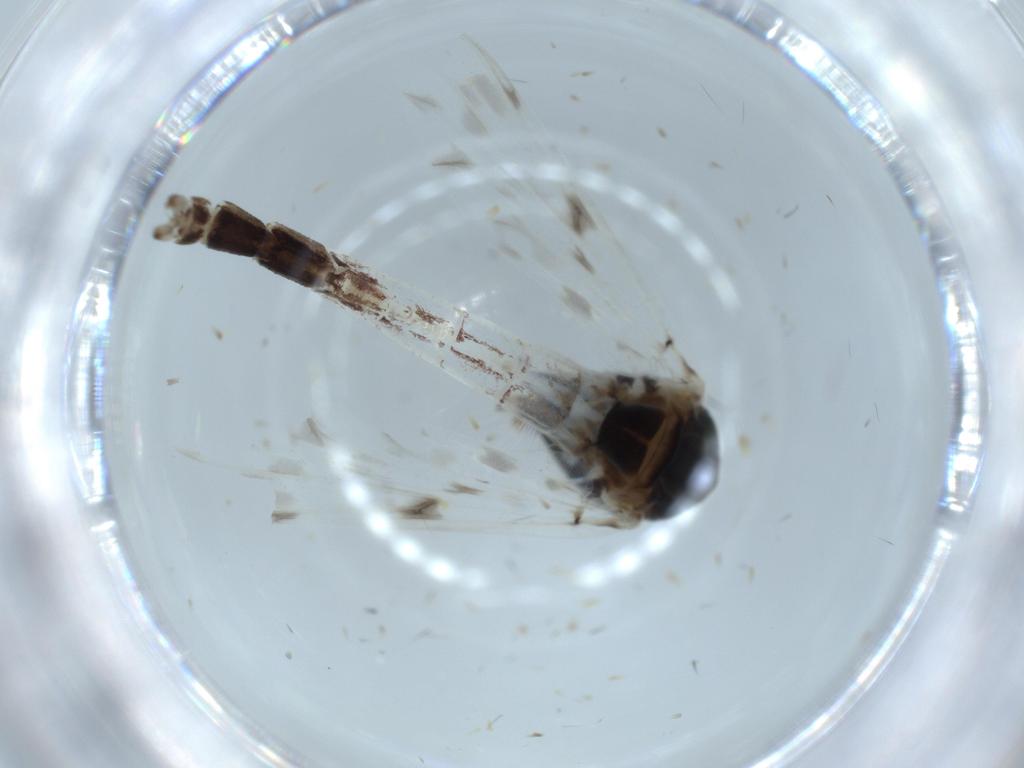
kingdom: Animalia
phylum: Arthropoda
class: Insecta
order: Diptera
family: Chironomidae
